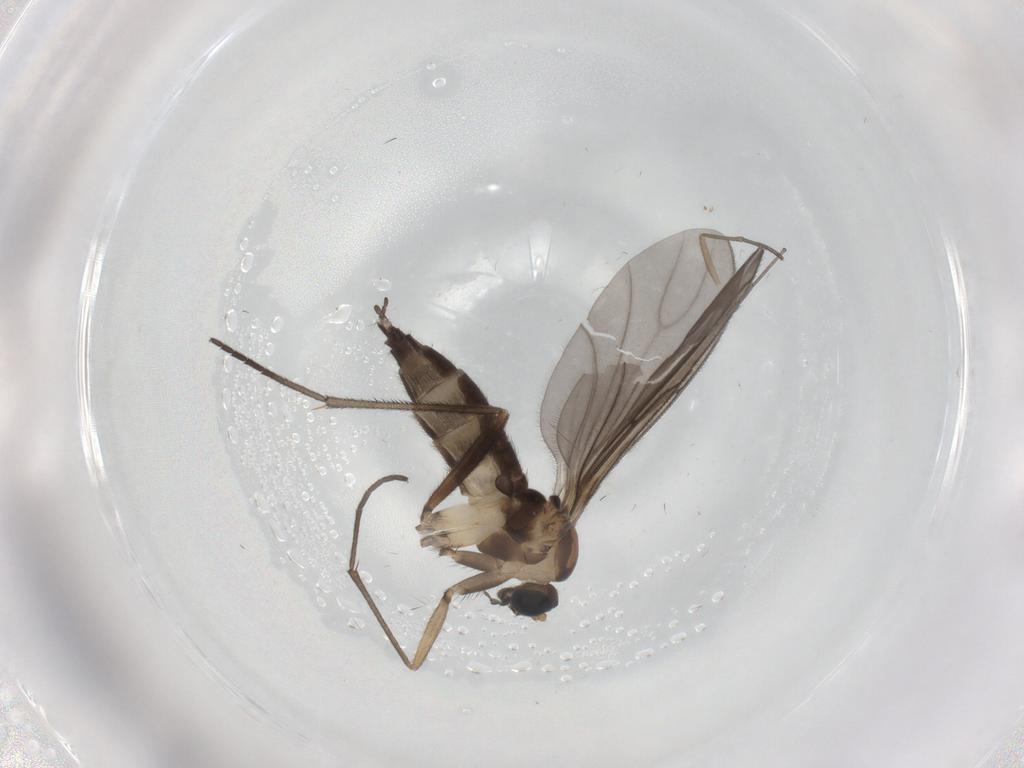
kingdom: Animalia
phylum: Arthropoda
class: Insecta
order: Diptera
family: Sciaridae
